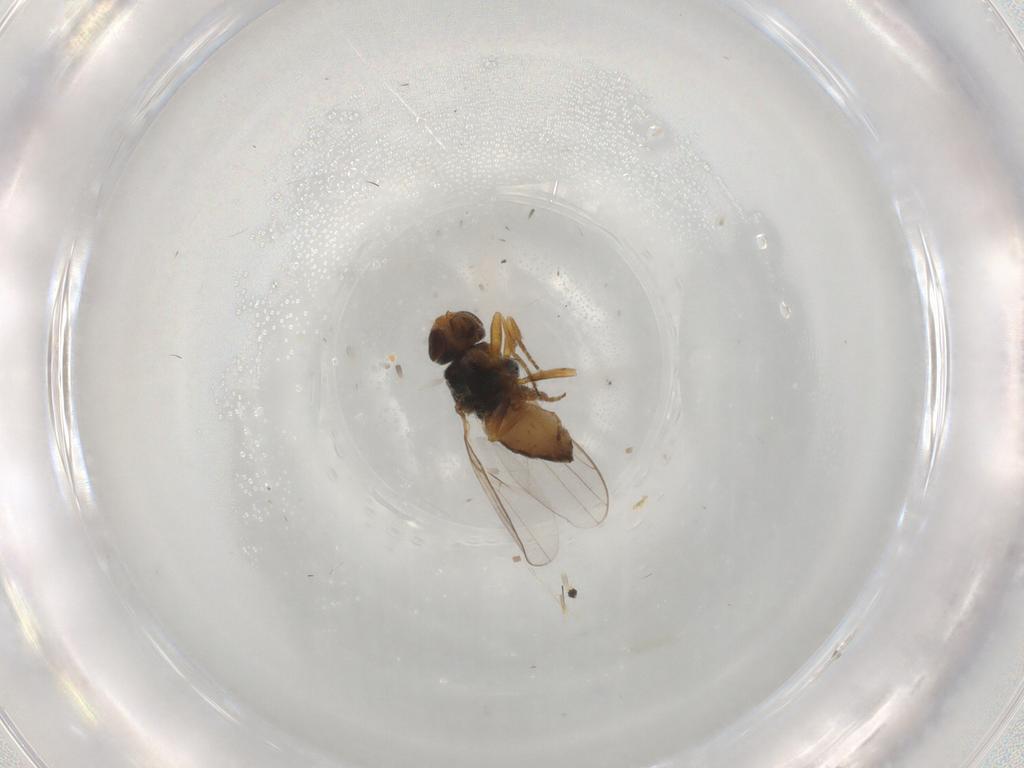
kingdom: Animalia
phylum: Arthropoda
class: Insecta
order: Diptera
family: Chloropidae
